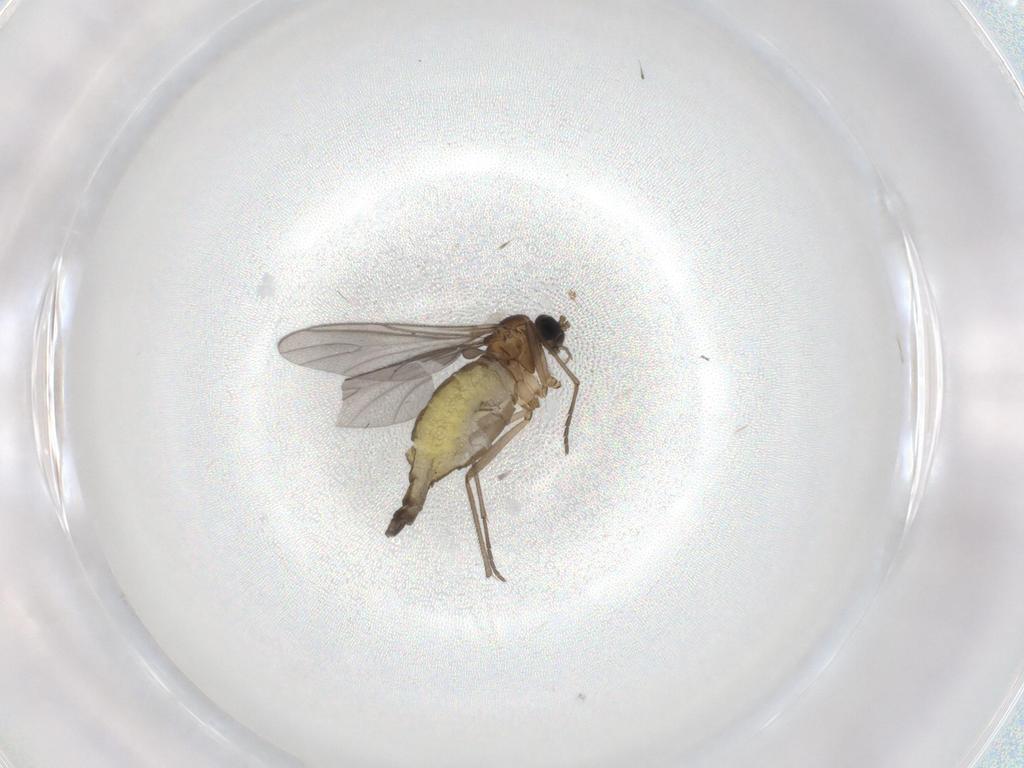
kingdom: Animalia
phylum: Arthropoda
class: Insecta
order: Diptera
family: Sciaridae
